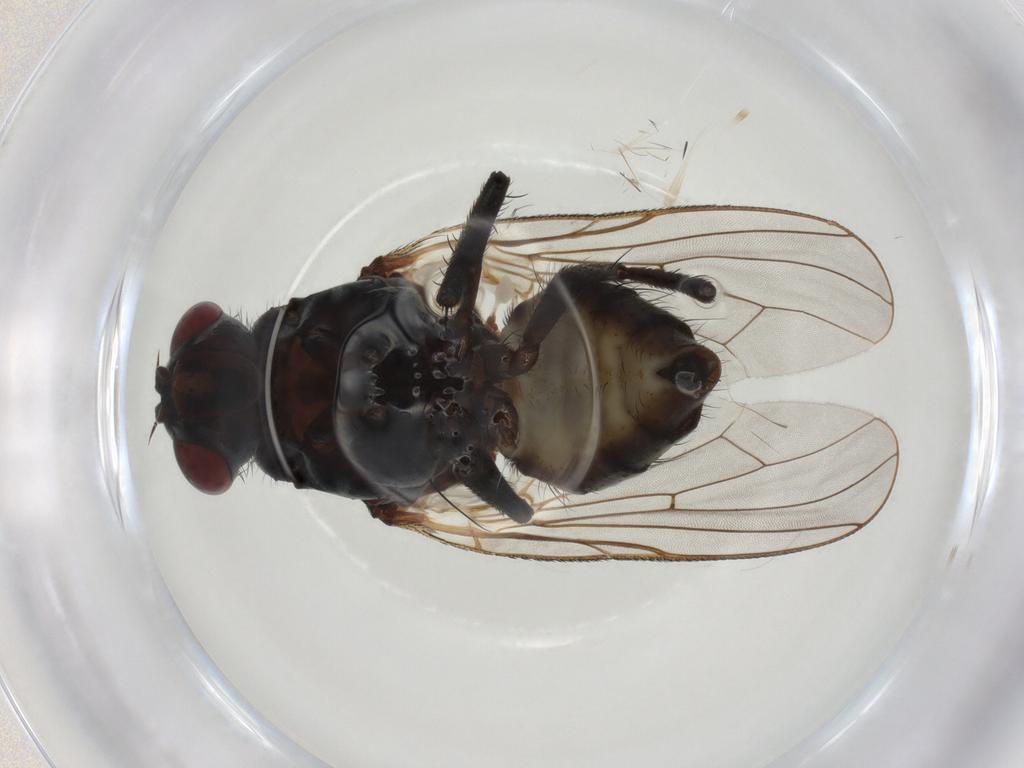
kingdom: Animalia
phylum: Arthropoda
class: Insecta
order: Diptera
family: Anthomyiidae
